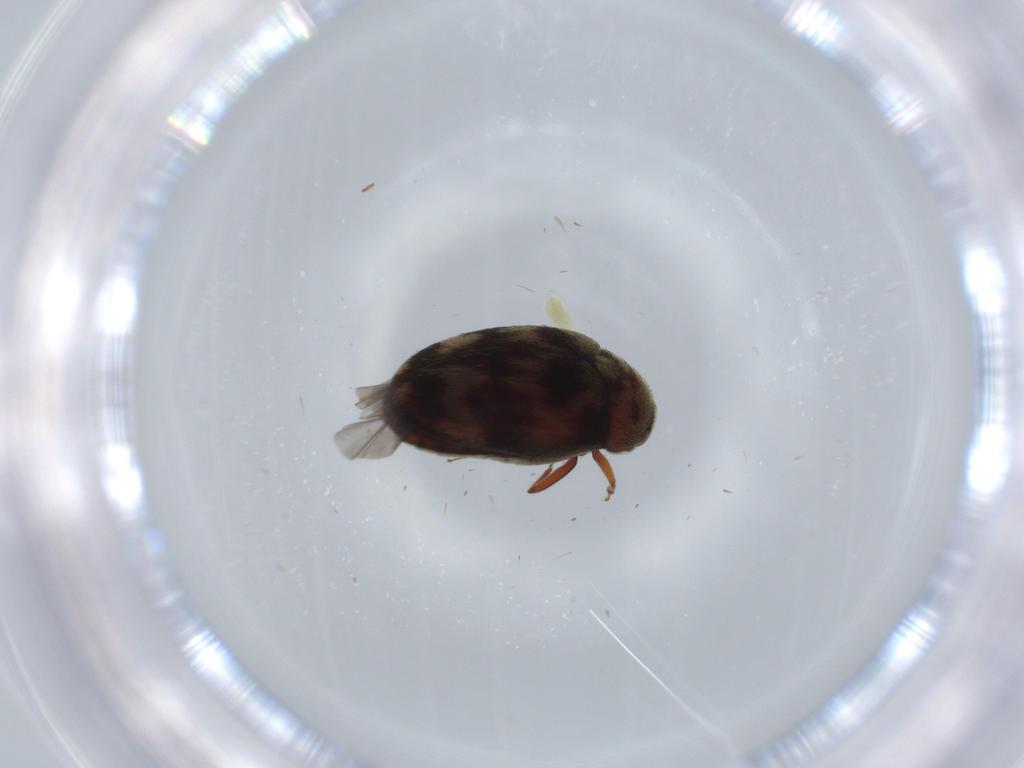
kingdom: Animalia
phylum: Arthropoda
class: Insecta
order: Coleoptera
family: Dermestidae
